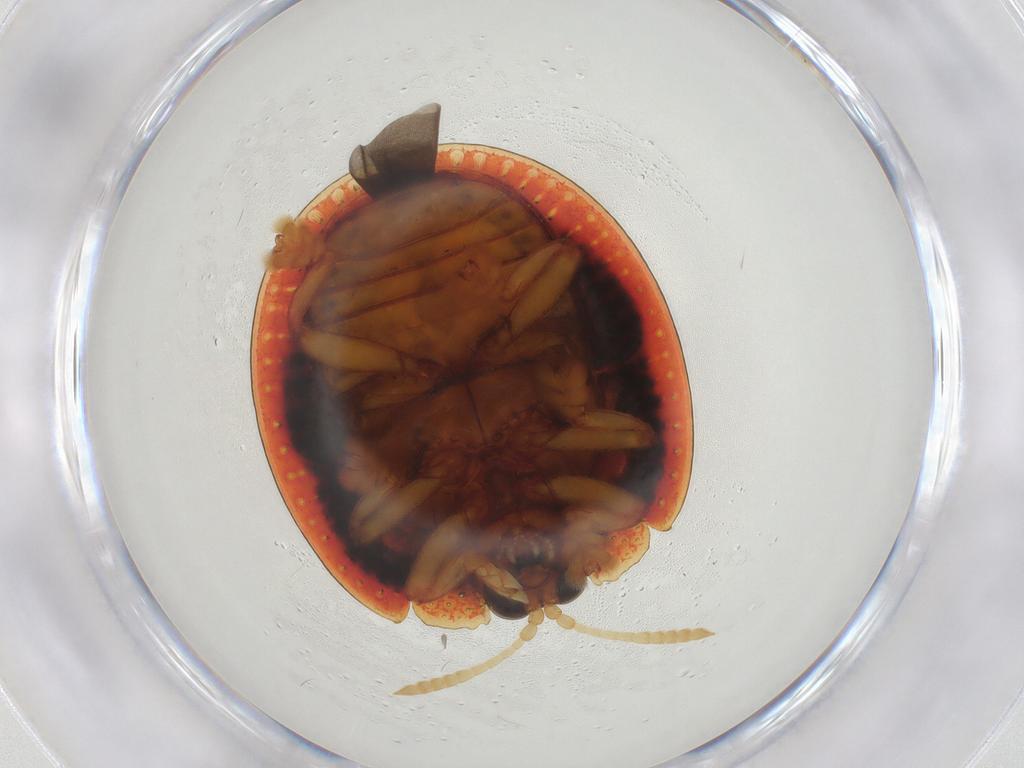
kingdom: Animalia
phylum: Arthropoda
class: Insecta
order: Coleoptera
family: Chrysomelidae
